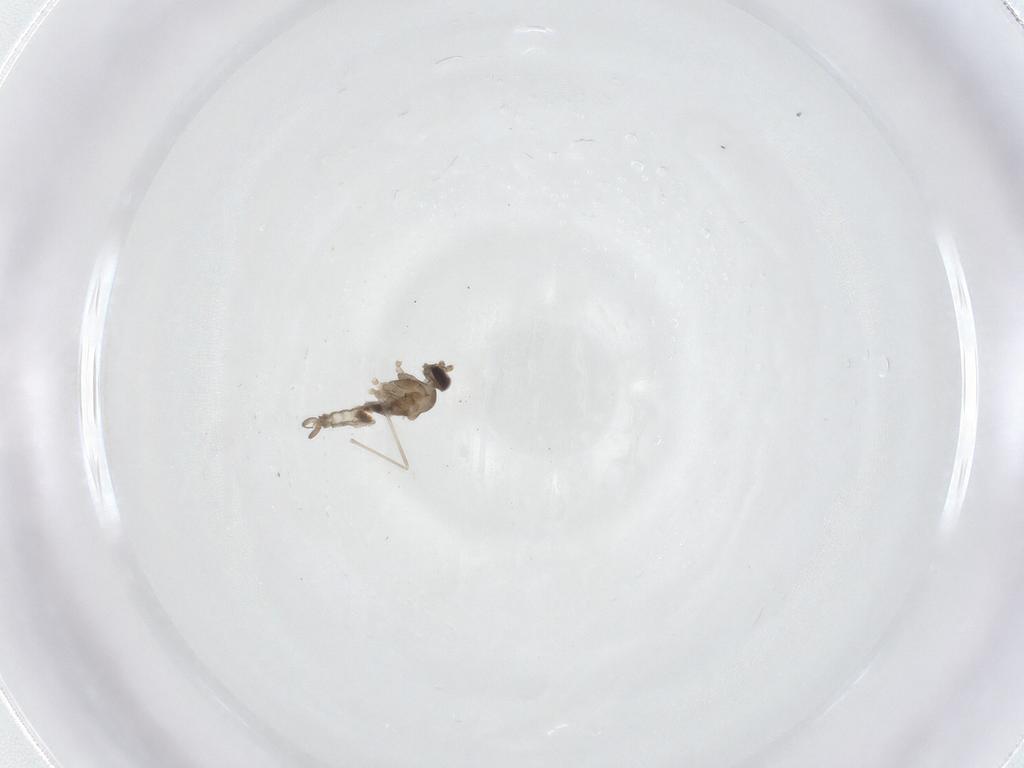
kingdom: Animalia
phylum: Arthropoda
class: Insecta
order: Diptera
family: Cecidomyiidae
